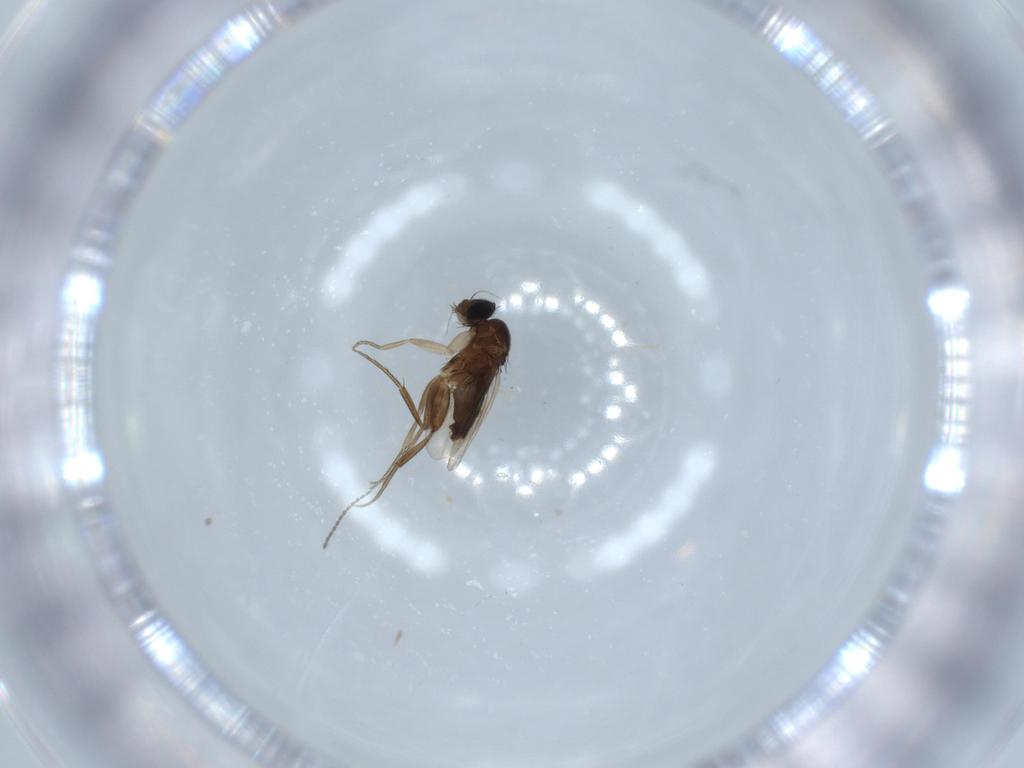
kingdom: Animalia
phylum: Arthropoda
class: Insecta
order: Diptera
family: Phoridae
